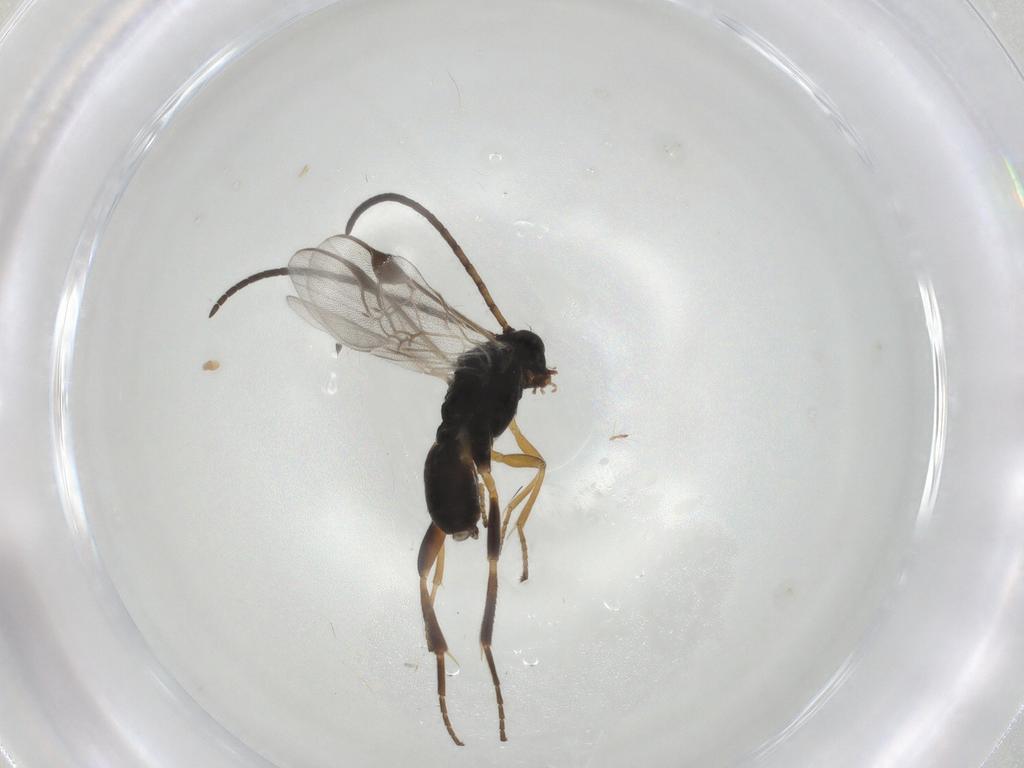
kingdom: Animalia
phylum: Arthropoda
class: Insecta
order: Hymenoptera
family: Braconidae
